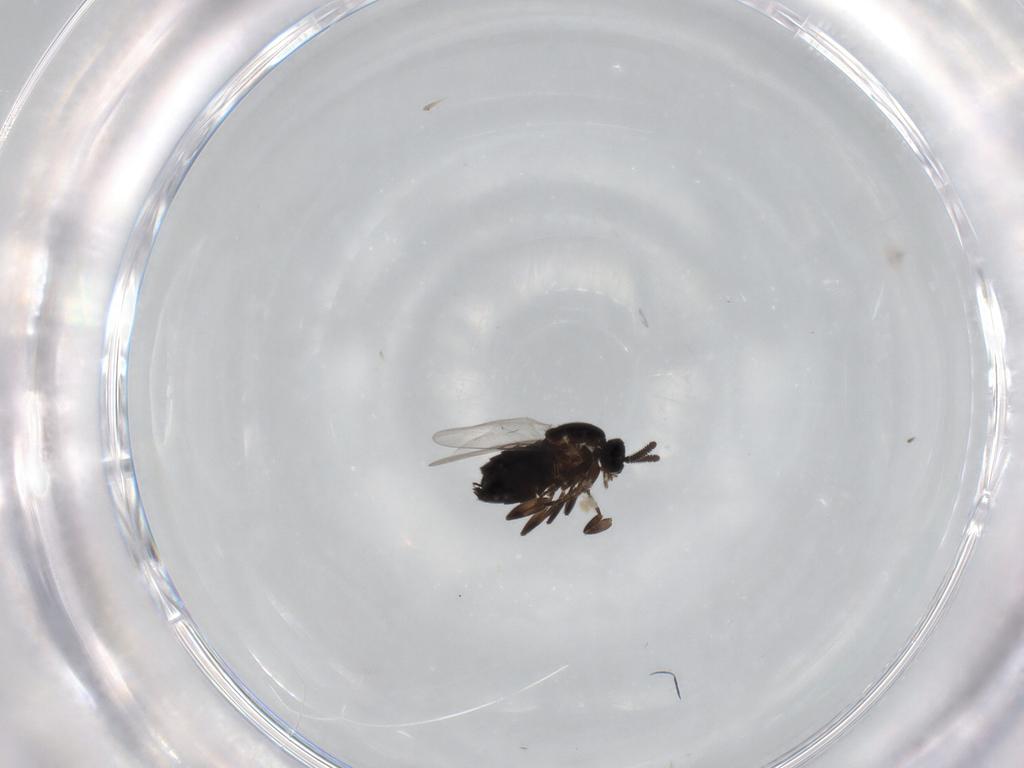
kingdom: Animalia
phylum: Arthropoda
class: Insecta
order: Diptera
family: Calliphoridae
